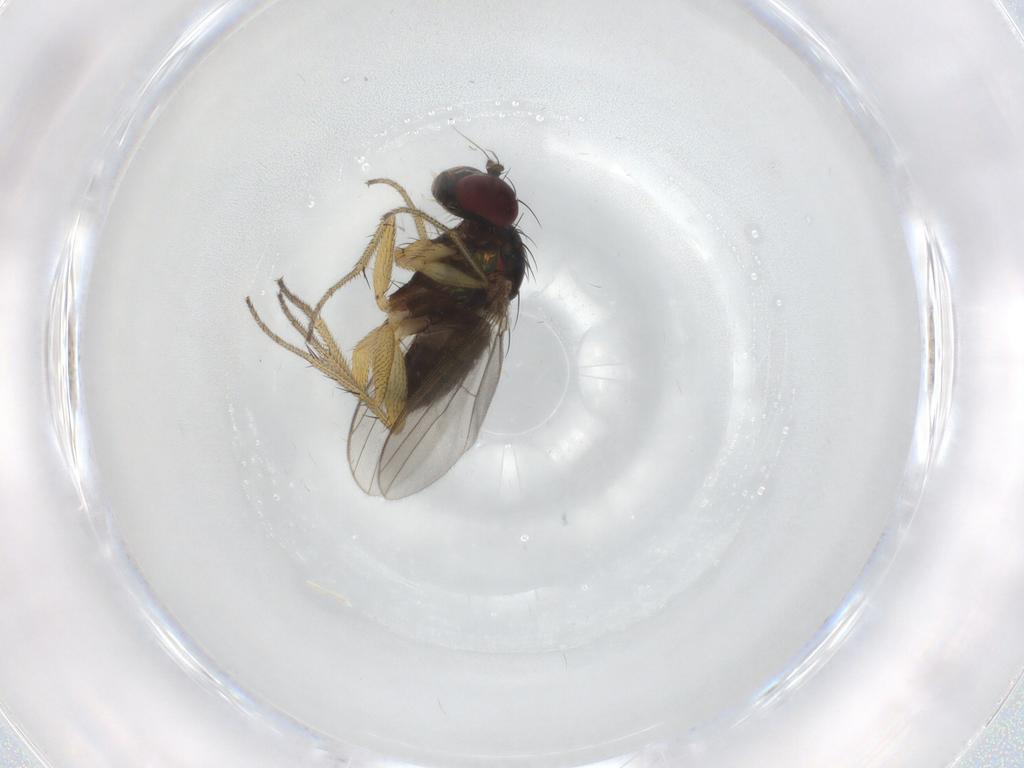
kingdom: Animalia
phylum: Arthropoda
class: Insecta
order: Diptera
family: Dolichopodidae
